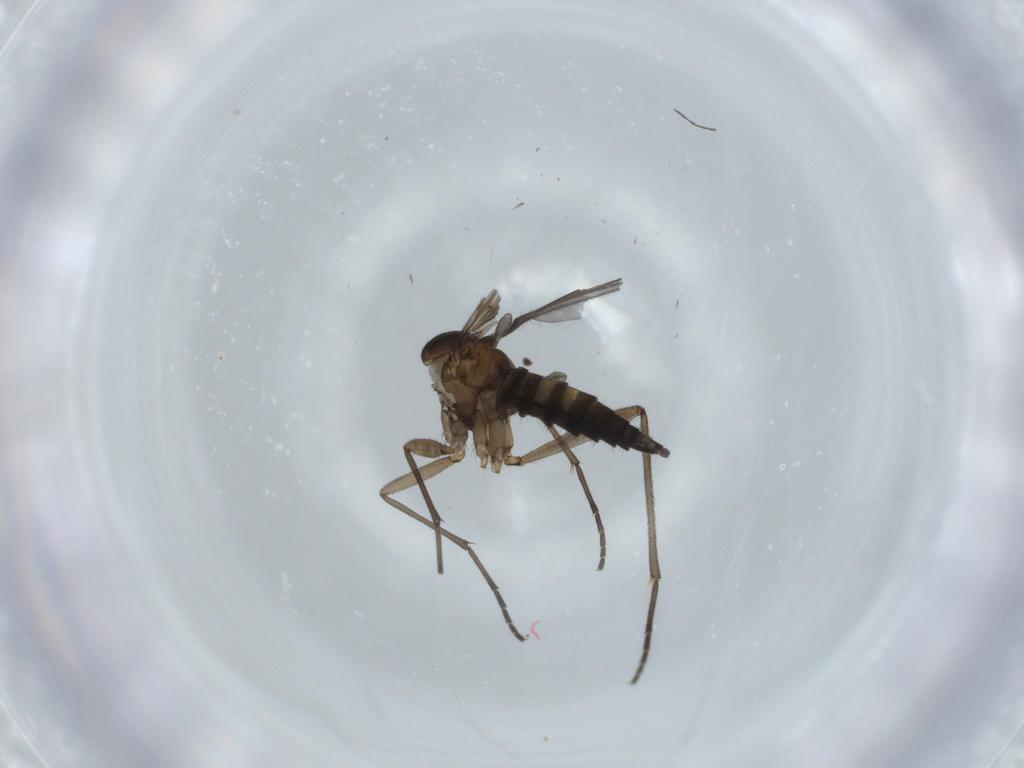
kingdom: Animalia
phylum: Arthropoda
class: Insecta
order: Diptera
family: Sciaridae
